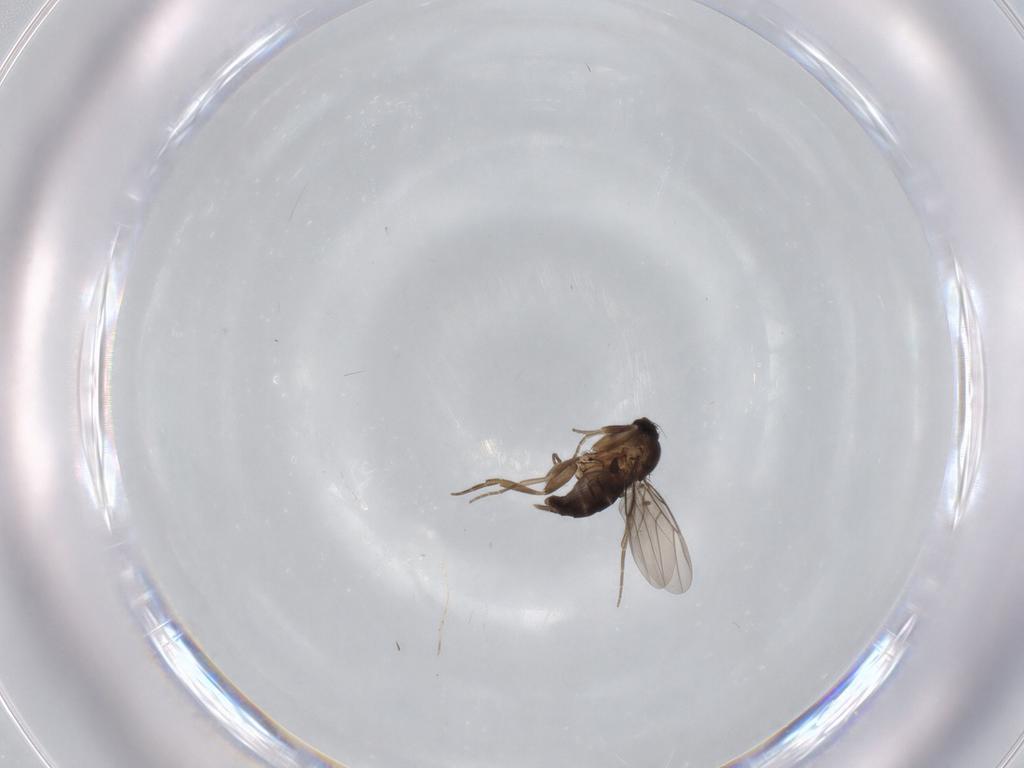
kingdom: Animalia
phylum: Arthropoda
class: Insecta
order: Diptera
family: Phoridae
